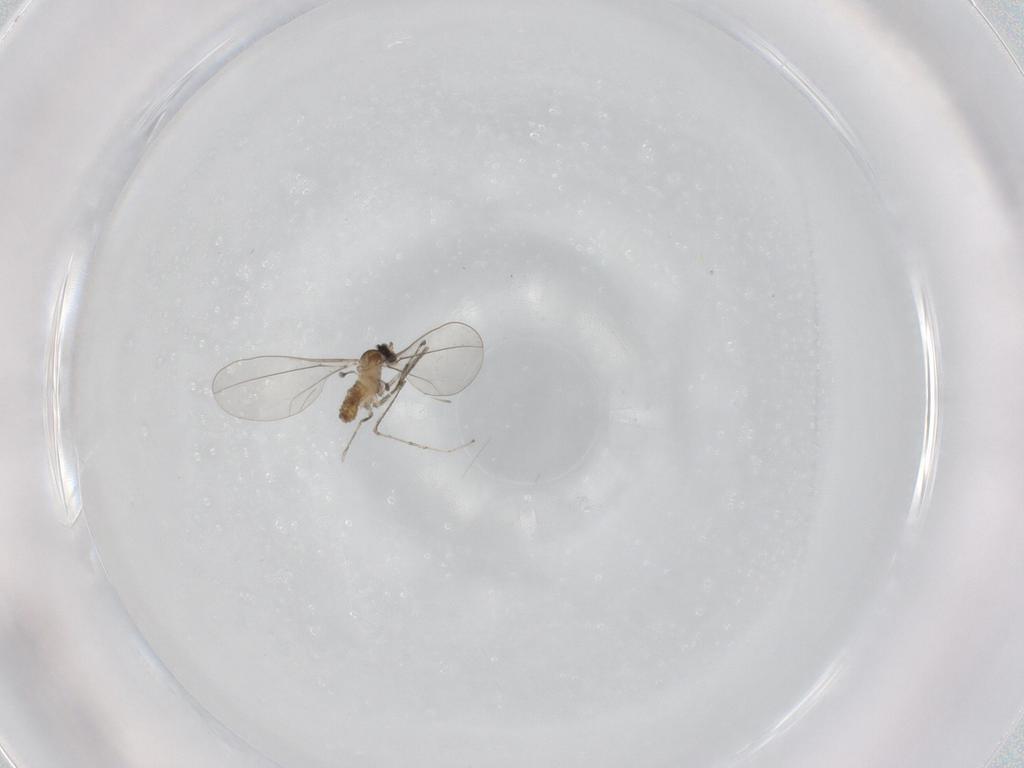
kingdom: Animalia
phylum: Arthropoda
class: Insecta
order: Diptera
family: Cecidomyiidae
